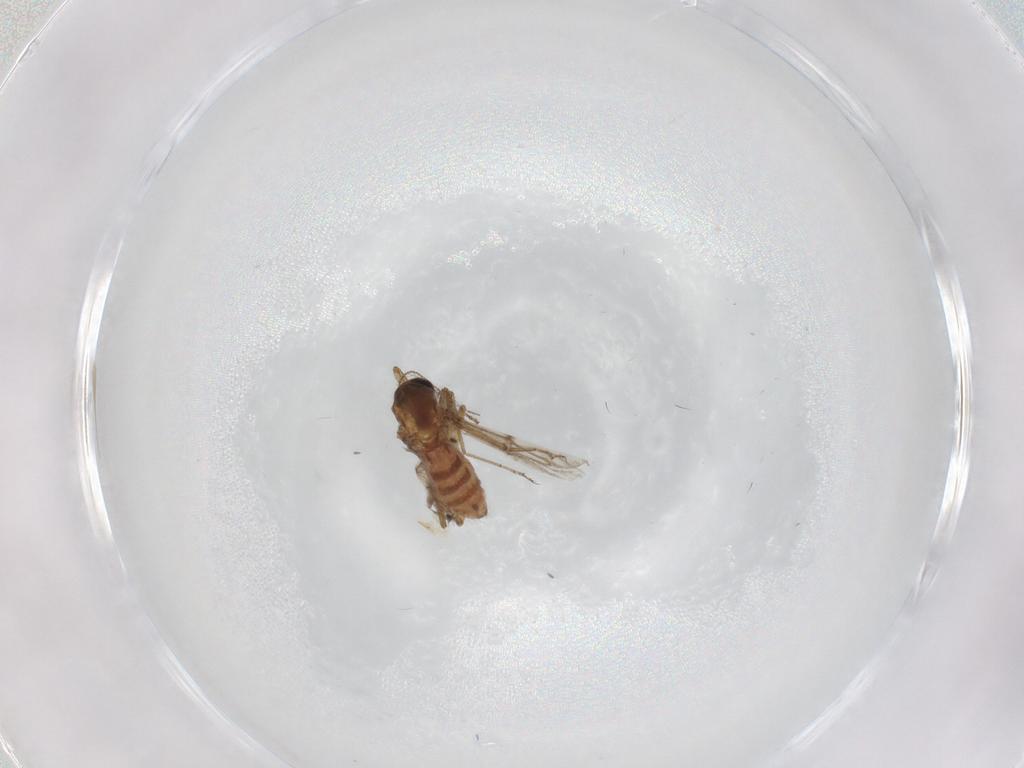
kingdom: Animalia
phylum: Arthropoda
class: Insecta
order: Diptera
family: Ceratopogonidae
